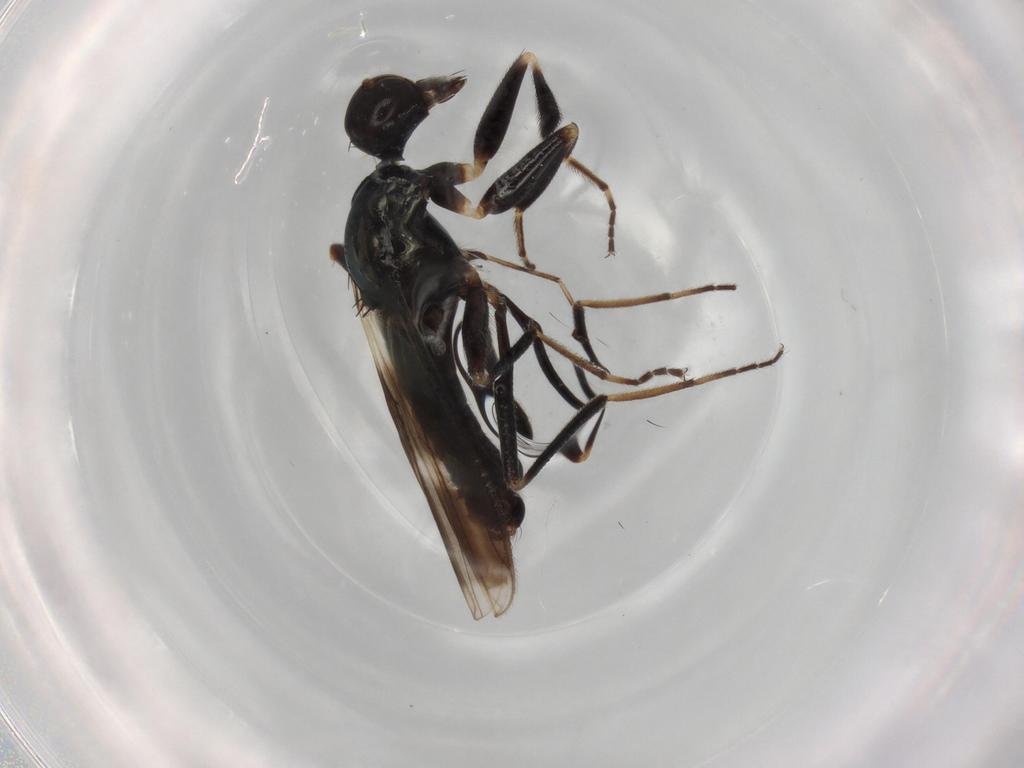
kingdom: Animalia
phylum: Arthropoda
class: Insecta
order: Diptera
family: Hybotidae
